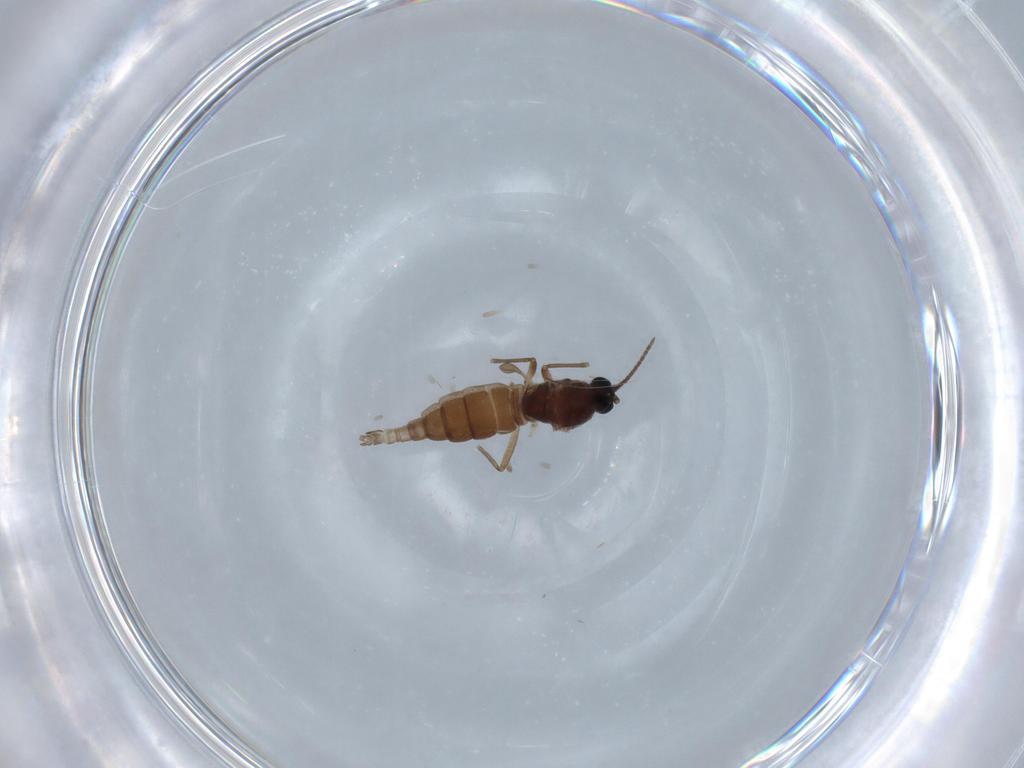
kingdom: Animalia
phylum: Arthropoda
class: Insecta
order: Diptera
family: Sciaridae
